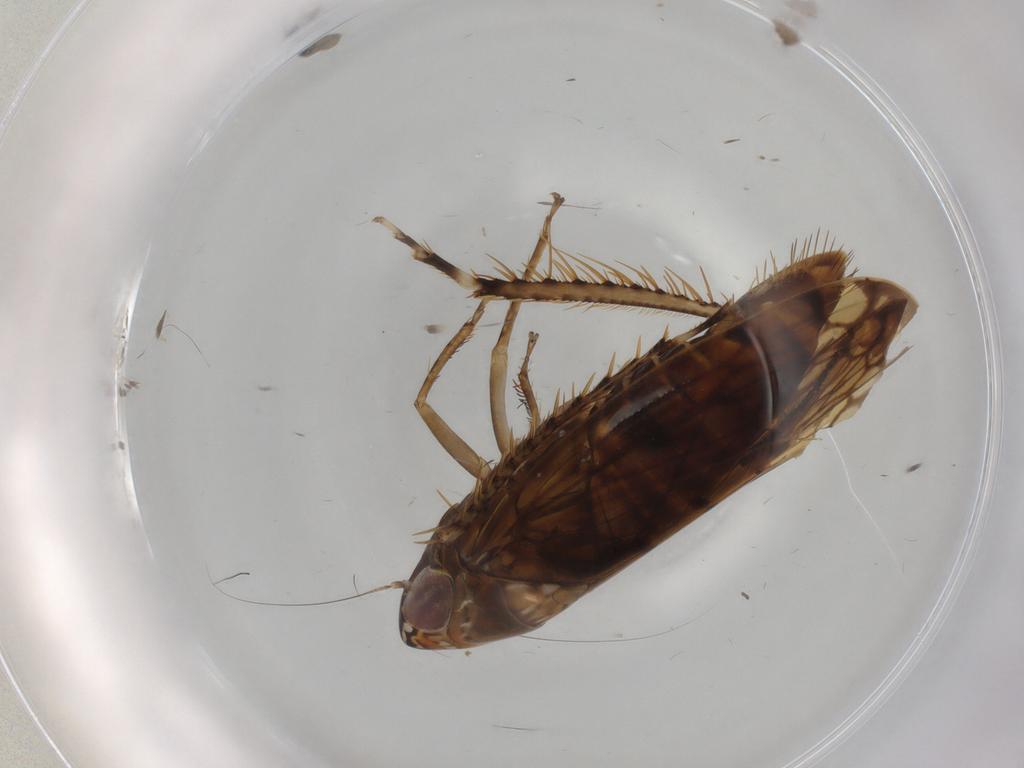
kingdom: Animalia
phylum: Arthropoda
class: Insecta
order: Hemiptera
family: Cicadellidae
